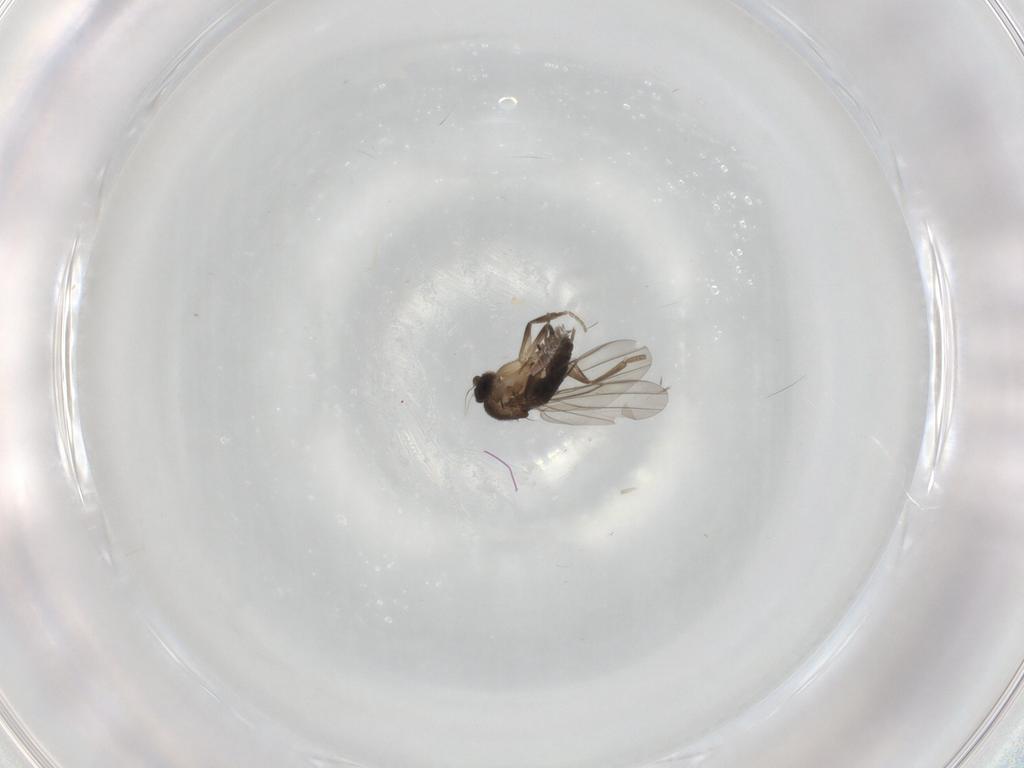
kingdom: Animalia
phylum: Arthropoda
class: Insecta
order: Diptera
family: Phoridae
